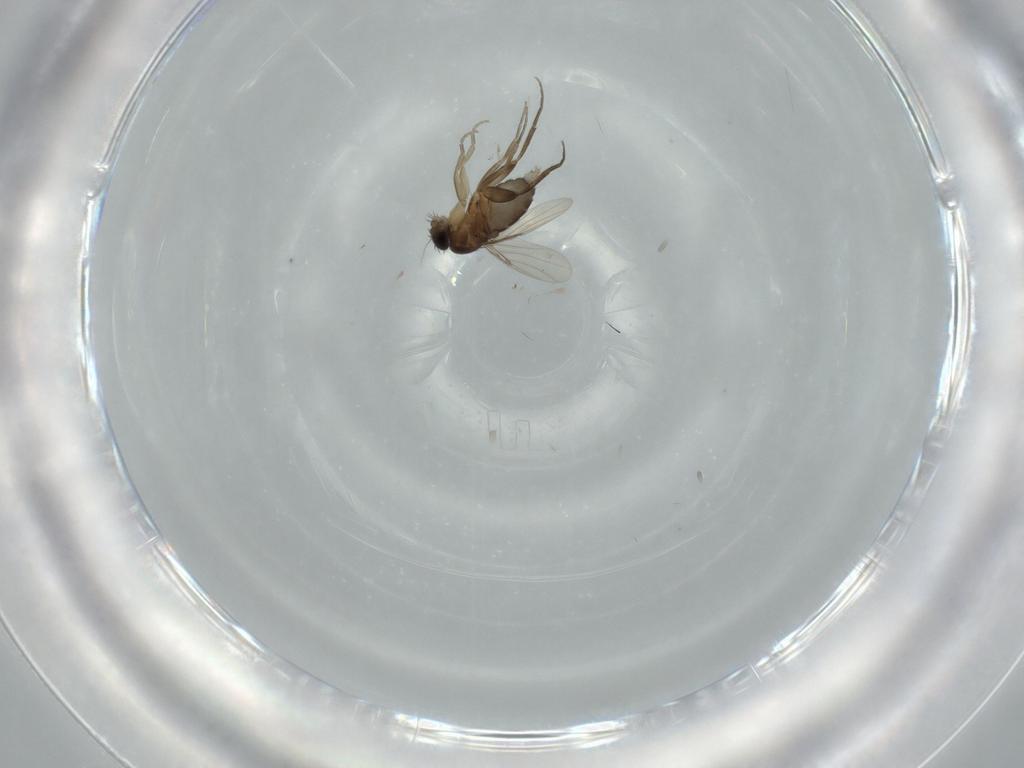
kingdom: Animalia
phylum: Arthropoda
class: Insecta
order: Diptera
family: Phoridae
